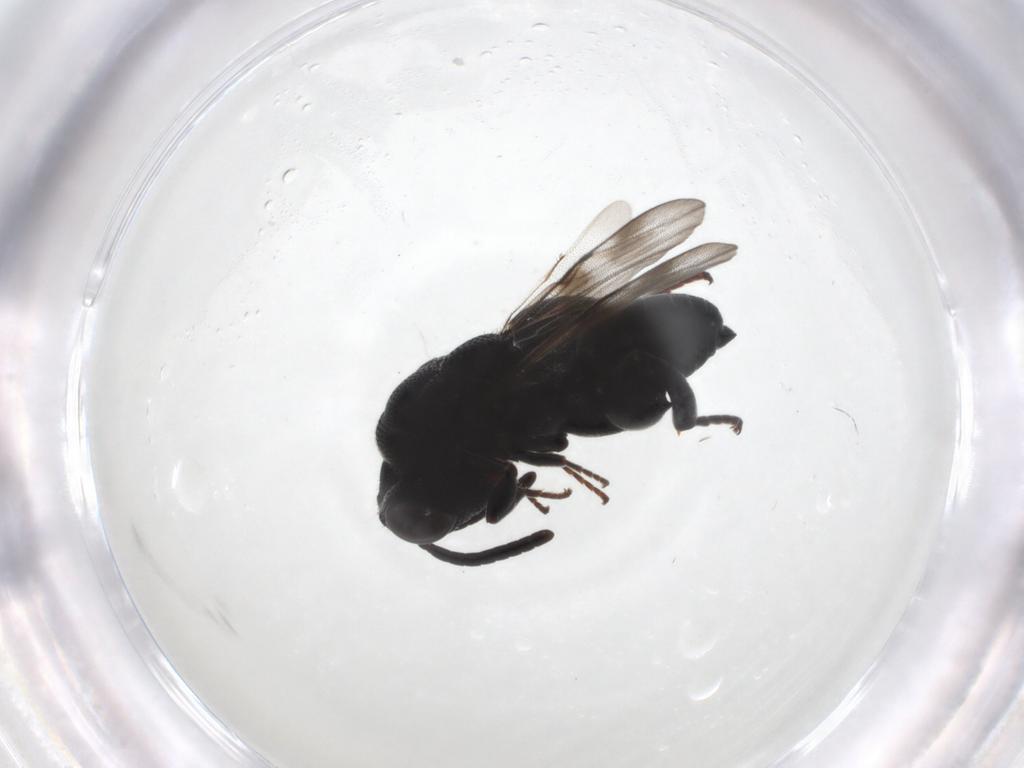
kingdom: Animalia
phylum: Arthropoda
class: Insecta
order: Hymenoptera
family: Chalcididae
